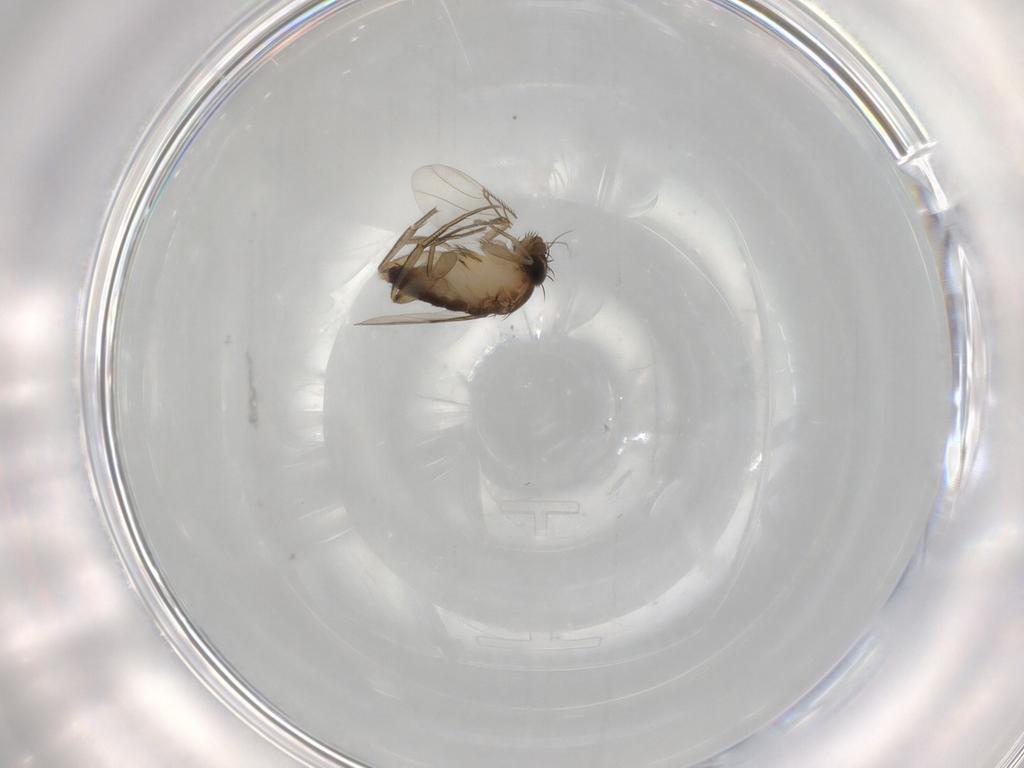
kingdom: Animalia
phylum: Arthropoda
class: Insecta
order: Diptera
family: Phoridae
